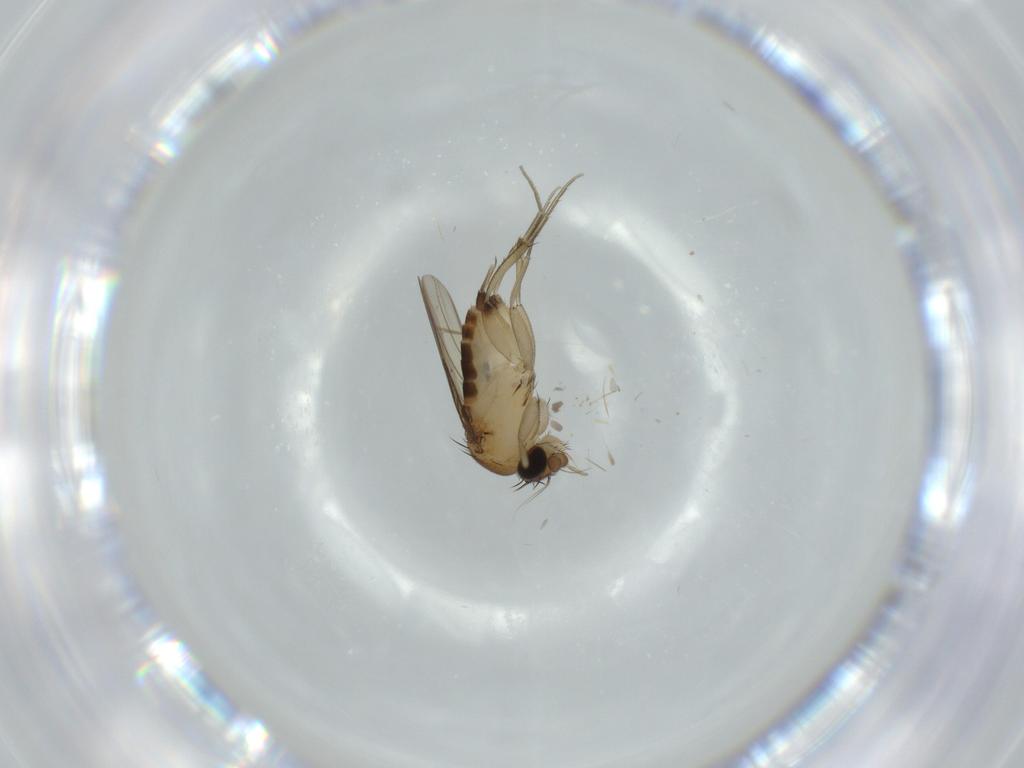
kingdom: Animalia
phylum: Arthropoda
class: Insecta
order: Diptera
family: Phoridae
